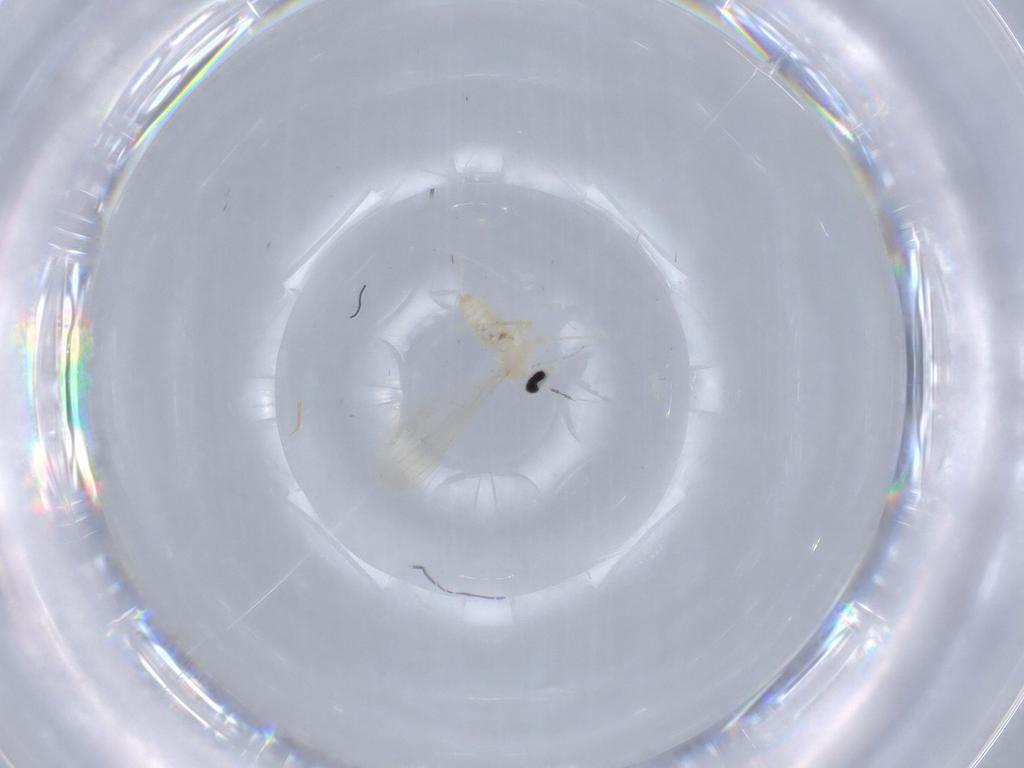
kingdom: Animalia
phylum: Arthropoda
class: Insecta
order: Diptera
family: Cecidomyiidae
